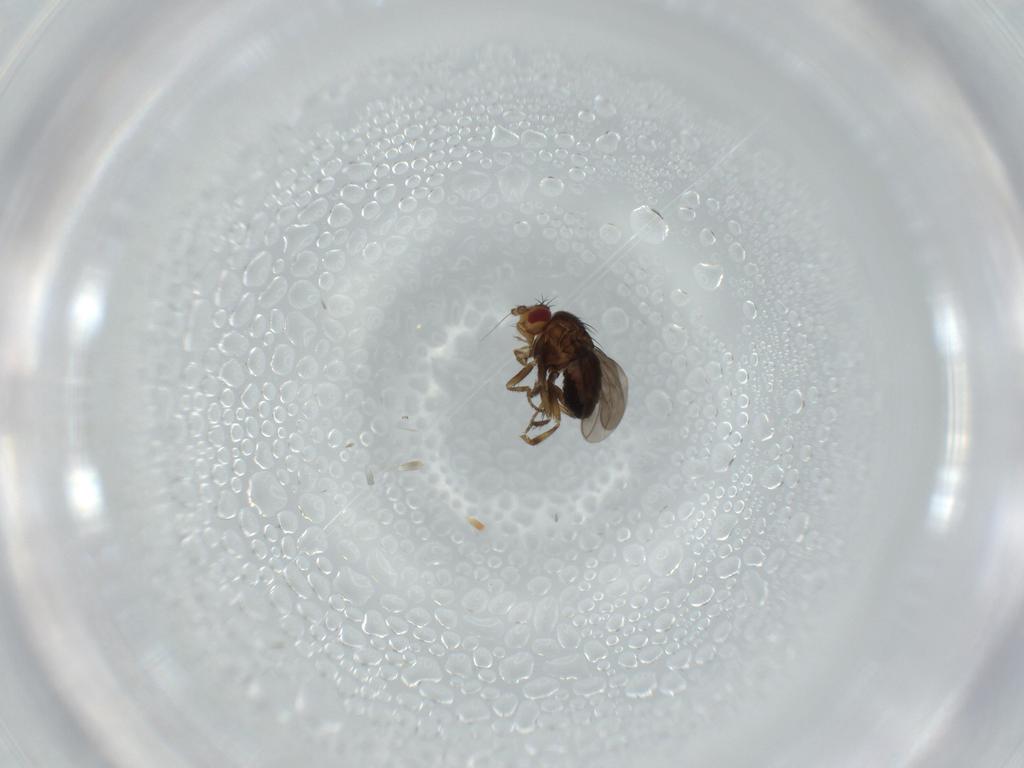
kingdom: Animalia
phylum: Arthropoda
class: Insecta
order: Diptera
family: Sphaeroceridae
